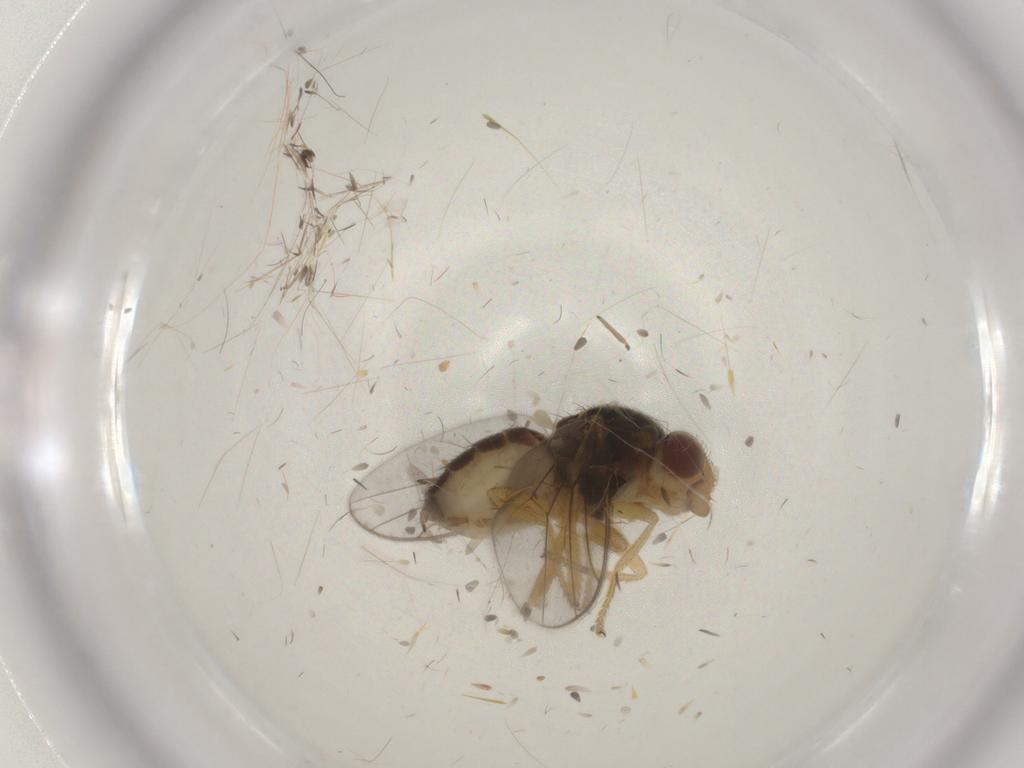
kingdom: Animalia
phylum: Arthropoda
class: Insecta
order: Diptera
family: Chloropidae
